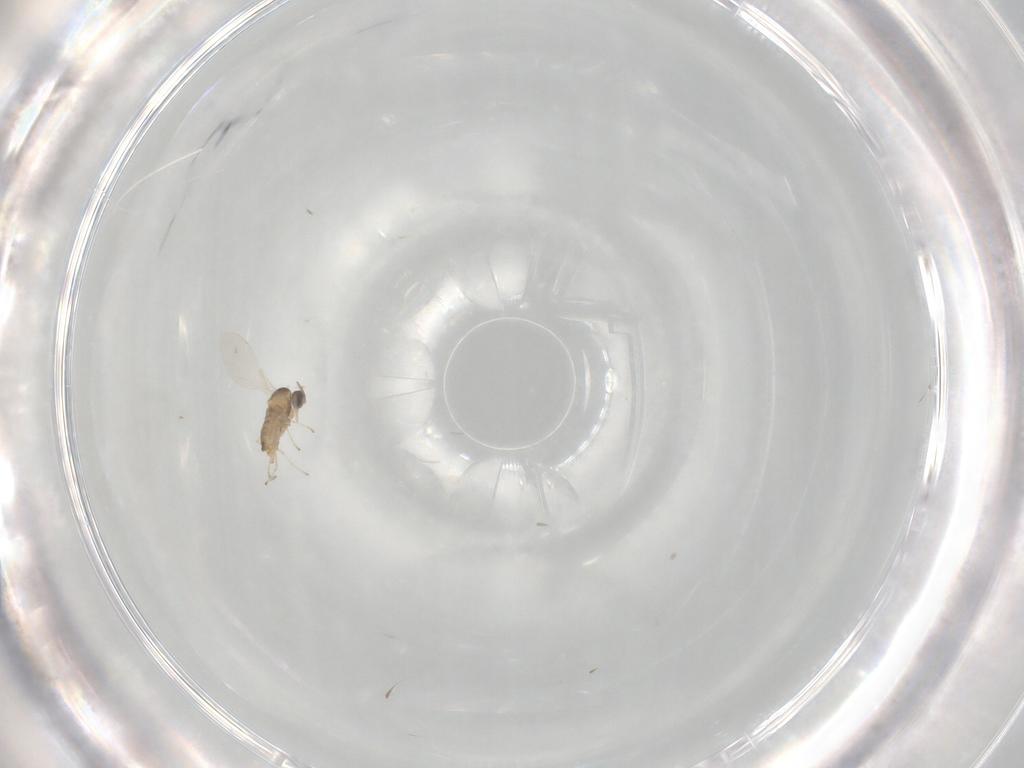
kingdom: Animalia
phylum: Arthropoda
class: Insecta
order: Diptera
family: Cecidomyiidae
